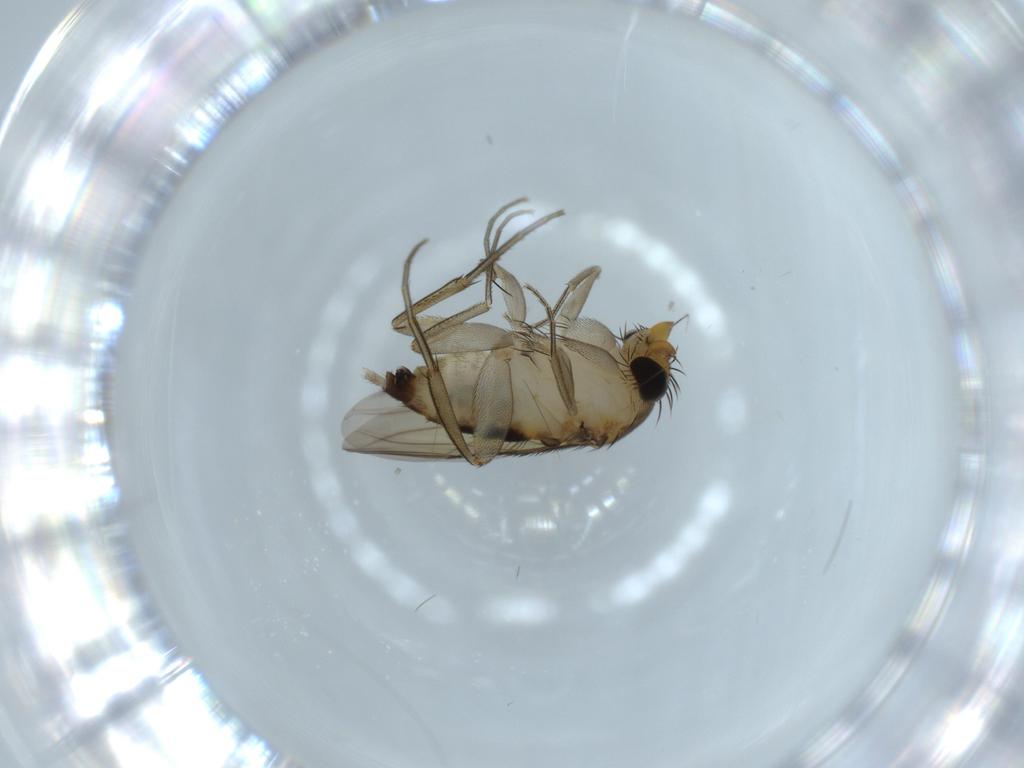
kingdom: Animalia
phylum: Arthropoda
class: Insecta
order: Diptera
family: Phoridae
